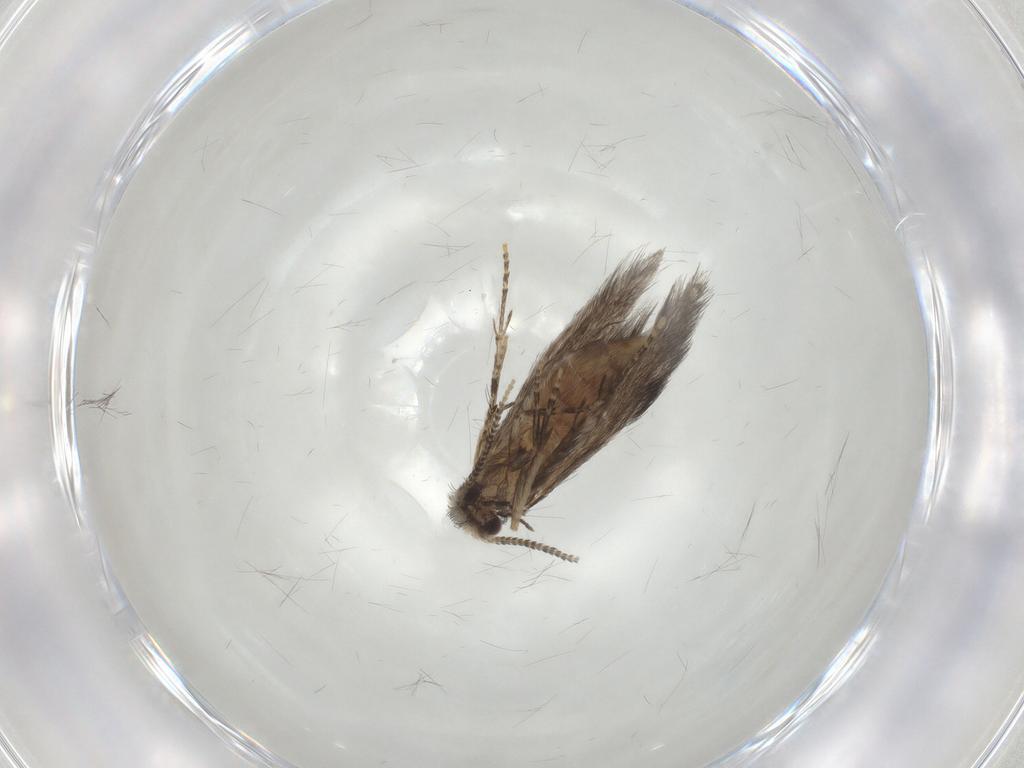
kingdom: Animalia
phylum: Arthropoda
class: Insecta
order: Trichoptera
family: Hydroptilidae
